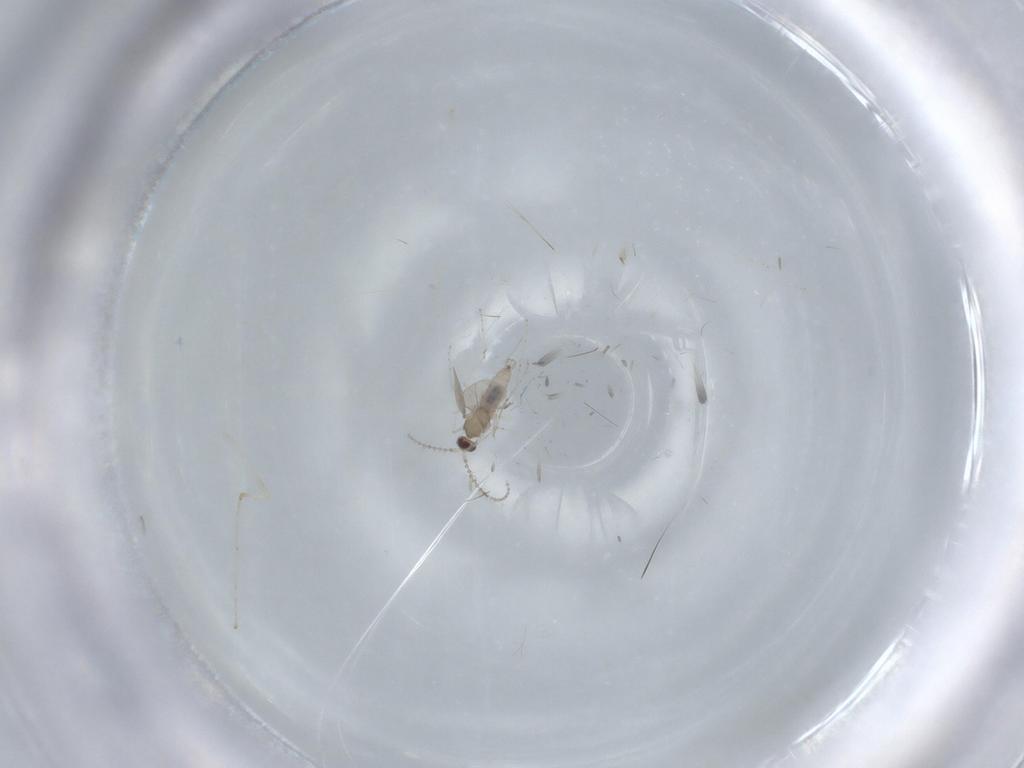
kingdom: Animalia
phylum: Arthropoda
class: Insecta
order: Diptera
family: Cecidomyiidae
